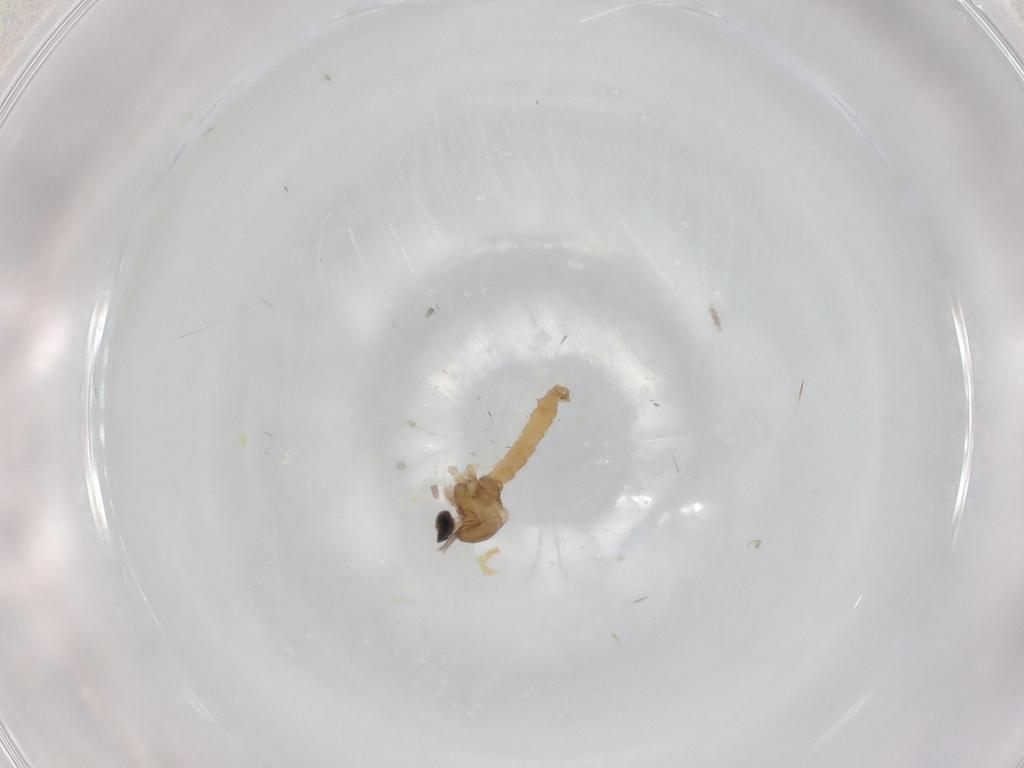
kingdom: Animalia
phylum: Arthropoda
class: Insecta
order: Diptera
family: Cecidomyiidae
